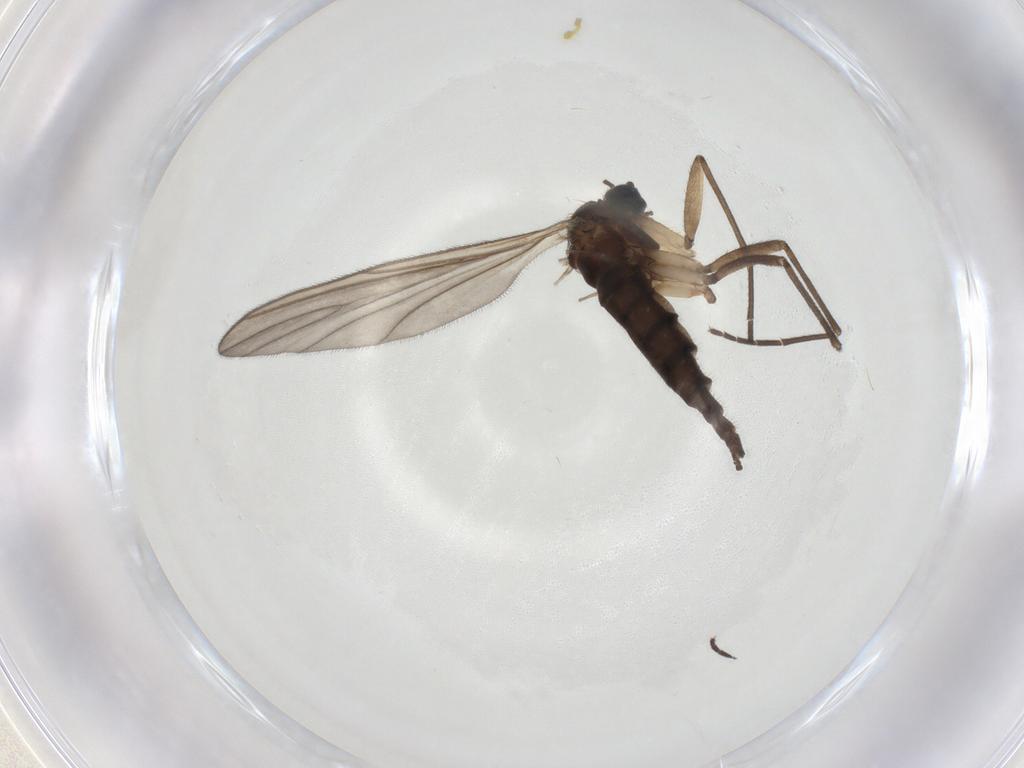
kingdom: Animalia
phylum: Arthropoda
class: Insecta
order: Diptera
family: Sciaridae
